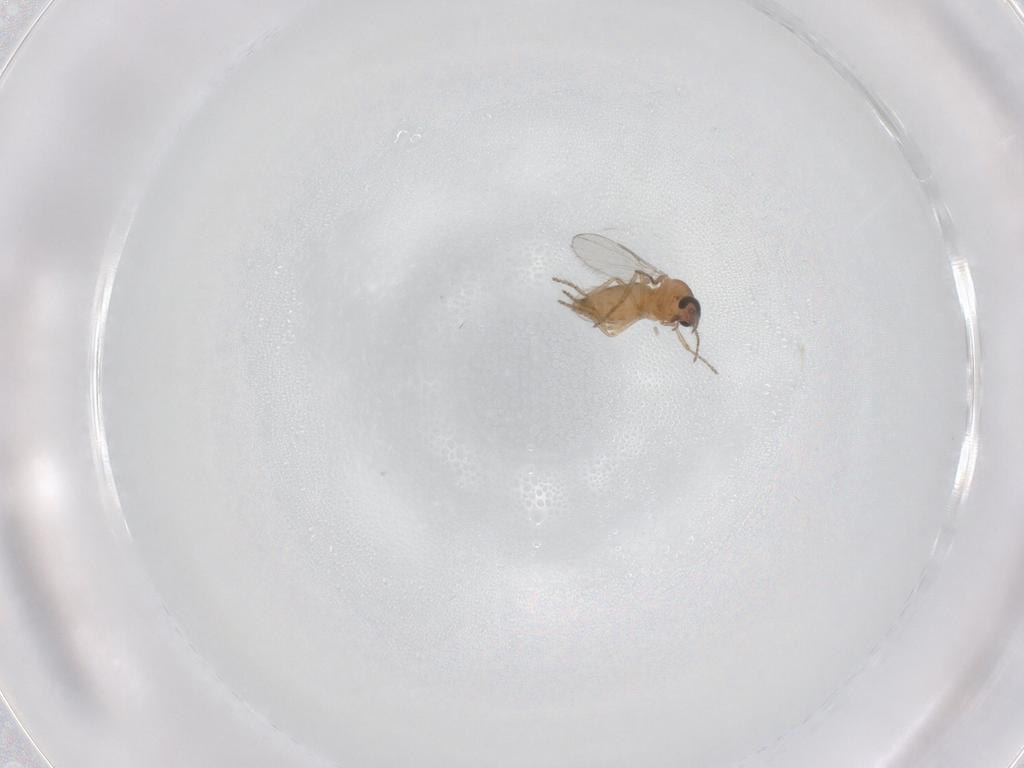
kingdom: Animalia
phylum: Arthropoda
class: Insecta
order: Diptera
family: Ceratopogonidae
